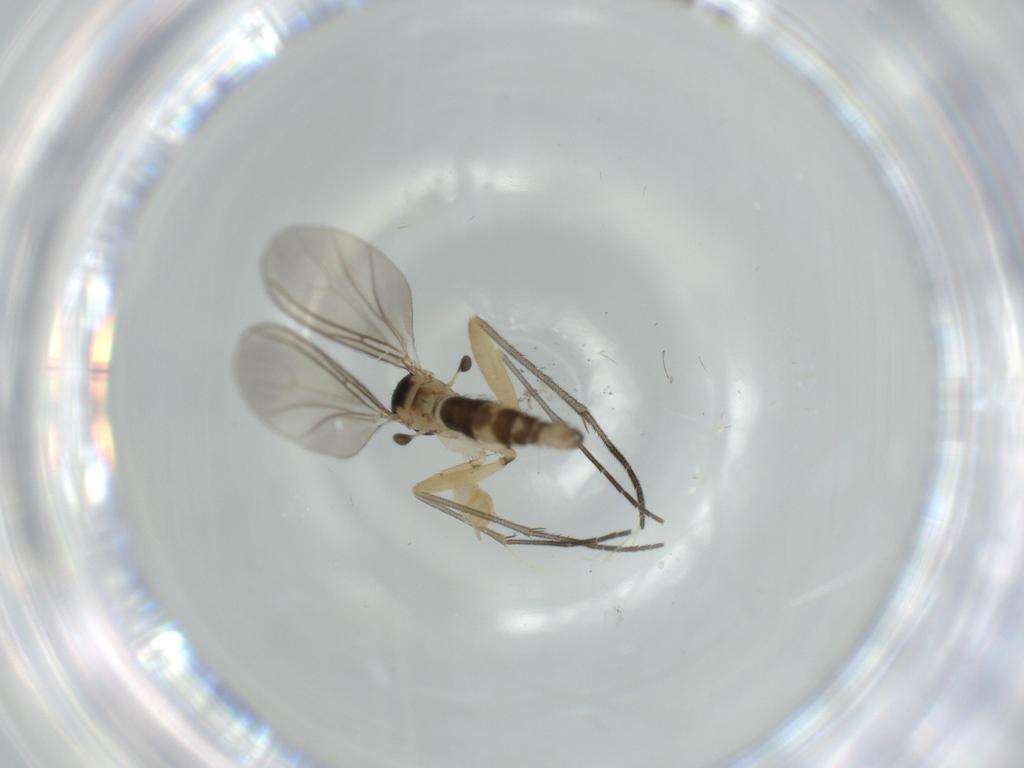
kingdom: Animalia
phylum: Arthropoda
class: Insecta
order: Diptera
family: Sciaridae
